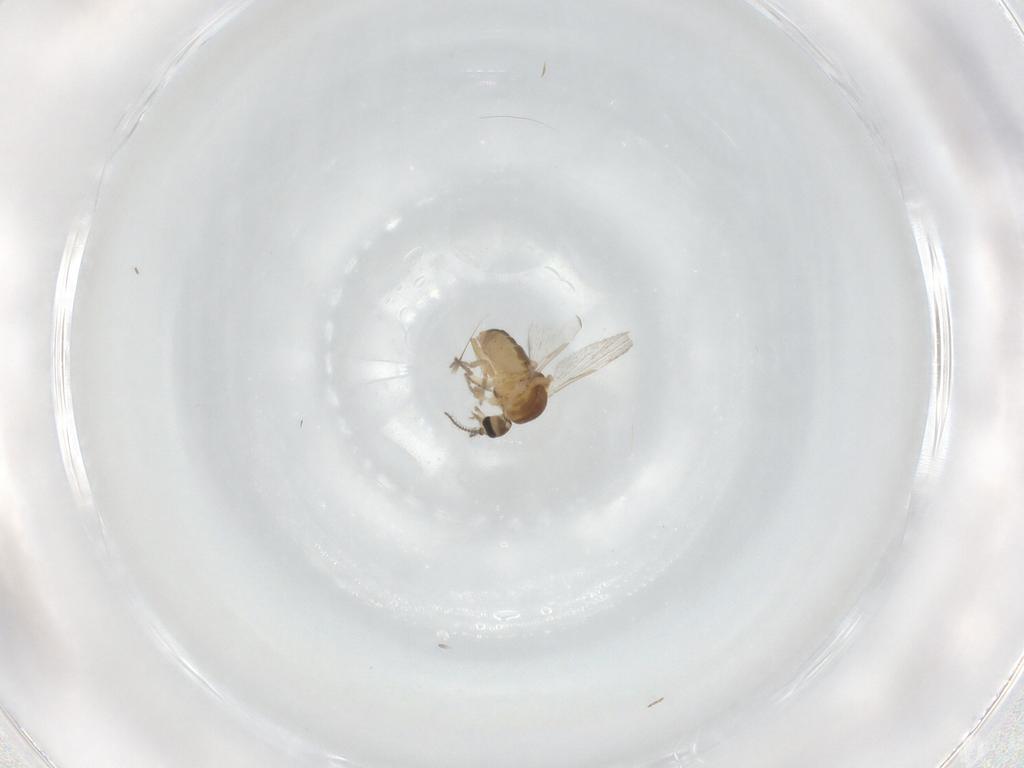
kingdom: Animalia
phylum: Arthropoda
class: Insecta
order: Diptera
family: Ceratopogonidae
